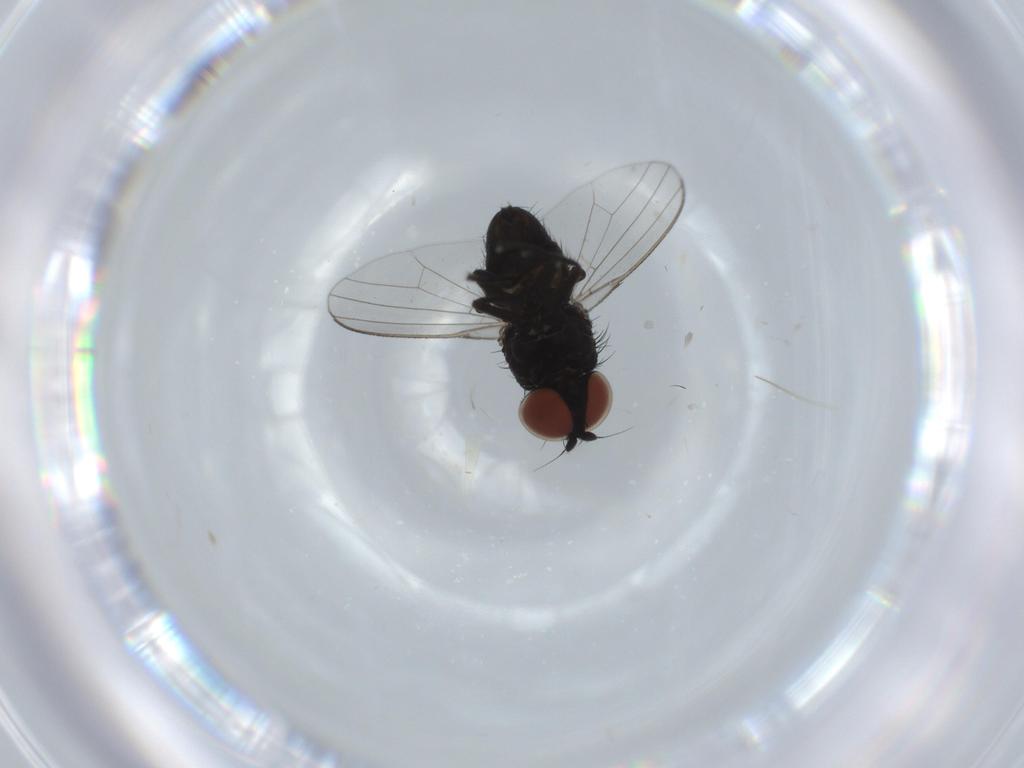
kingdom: Animalia
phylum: Arthropoda
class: Insecta
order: Diptera
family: Milichiidae
